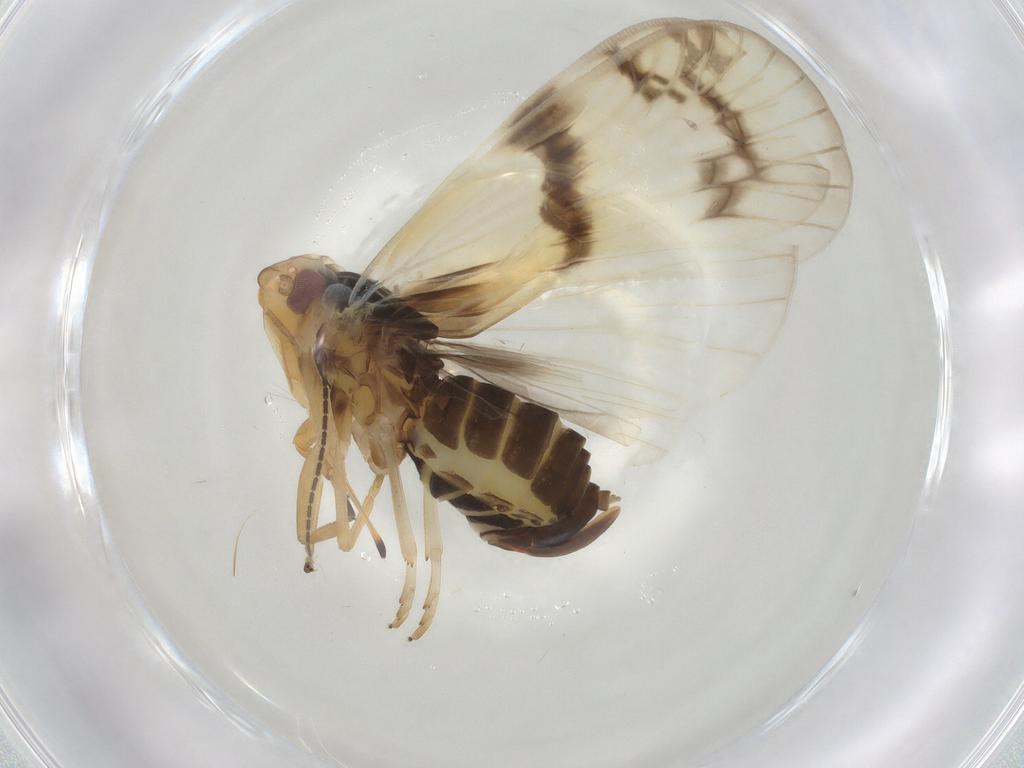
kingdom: Animalia
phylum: Arthropoda
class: Insecta
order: Hemiptera
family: Cixiidae
